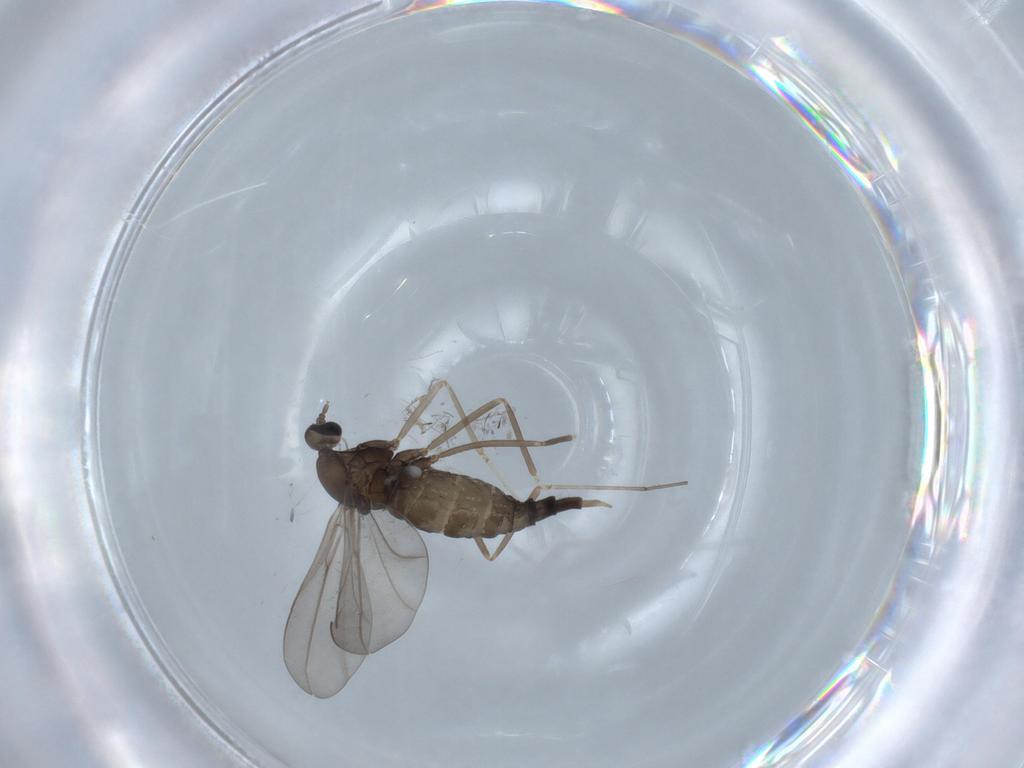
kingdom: Animalia
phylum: Arthropoda
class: Insecta
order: Diptera
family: Cecidomyiidae
